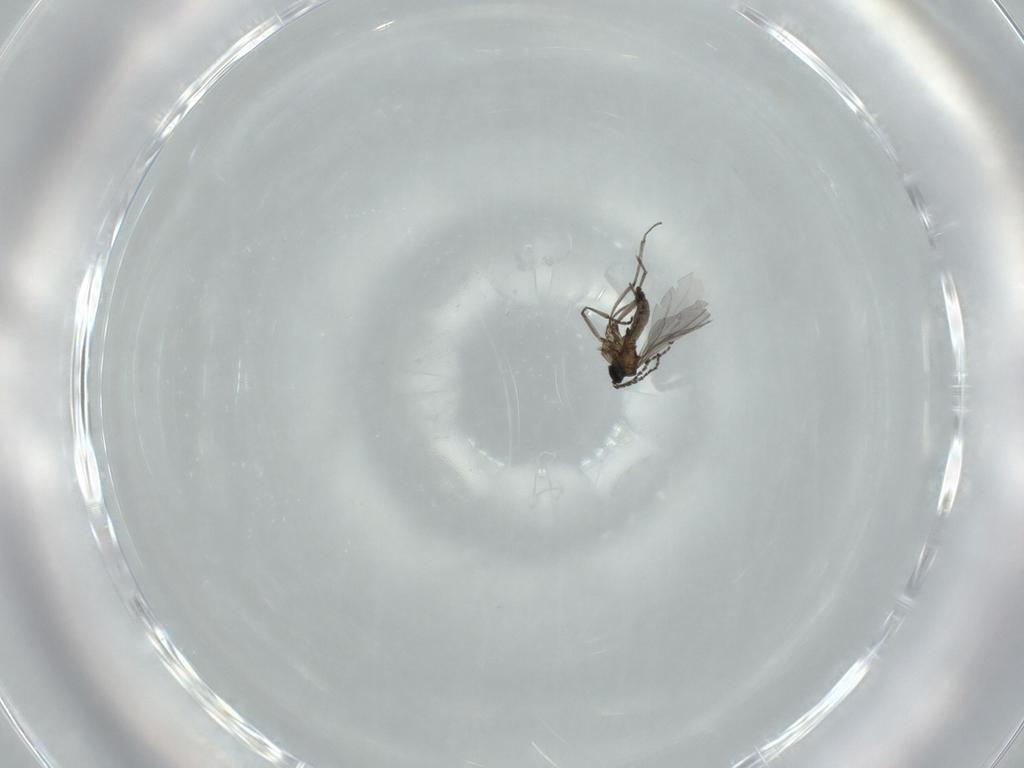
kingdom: Animalia
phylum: Arthropoda
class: Insecta
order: Diptera
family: Sciaridae
